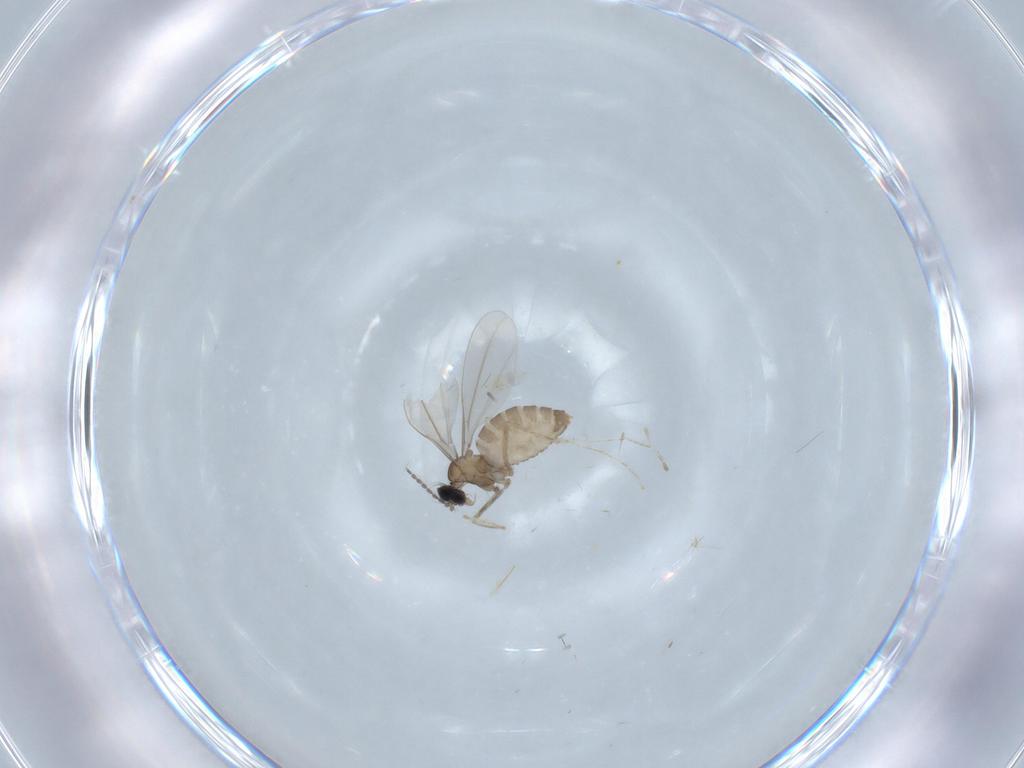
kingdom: Animalia
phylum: Arthropoda
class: Insecta
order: Diptera
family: Cecidomyiidae
